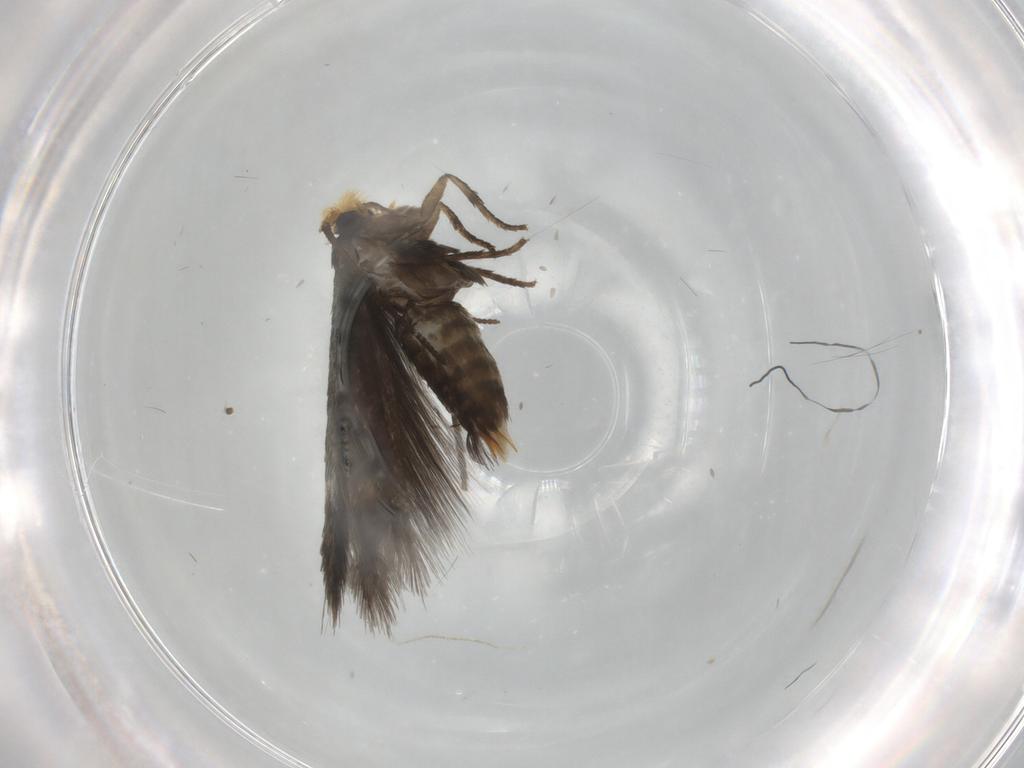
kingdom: Animalia
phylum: Arthropoda
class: Insecta
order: Lepidoptera
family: Nepticulidae
